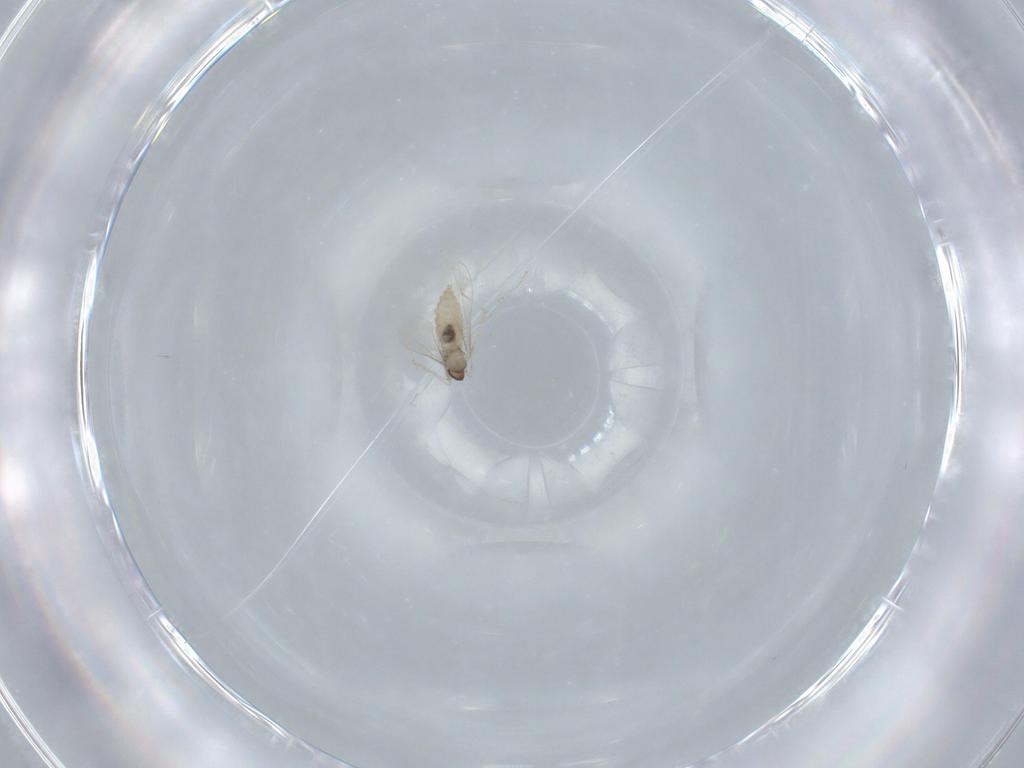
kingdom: Animalia
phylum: Arthropoda
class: Insecta
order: Diptera
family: Cecidomyiidae
